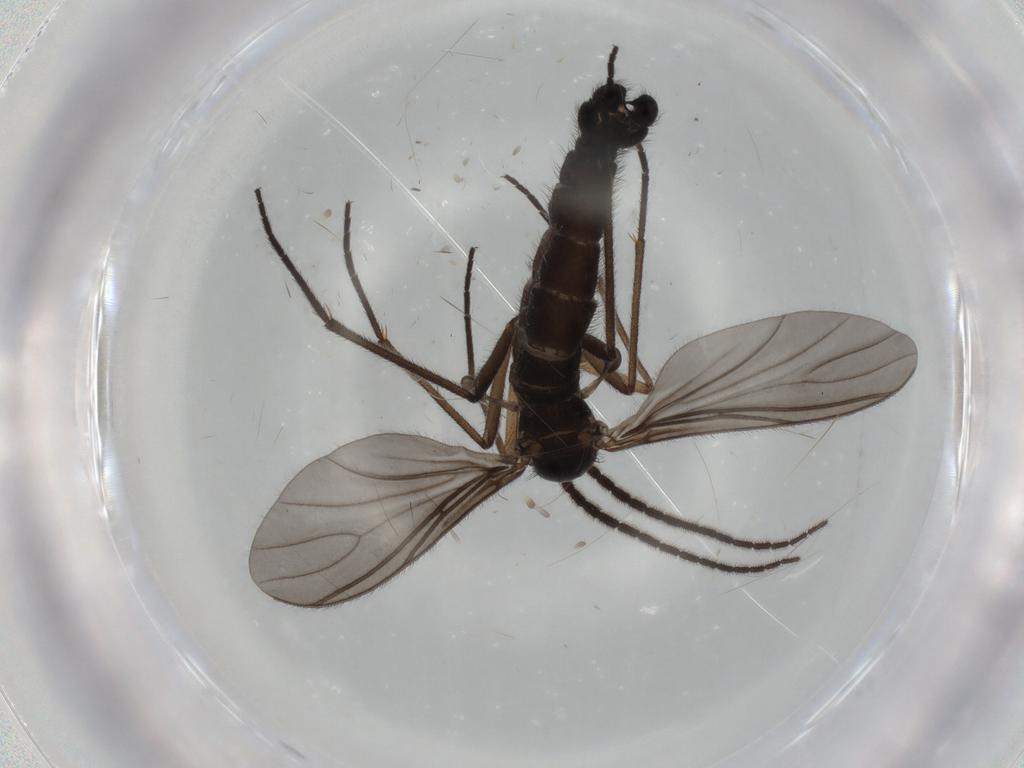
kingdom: Animalia
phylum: Arthropoda
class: Insecta
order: Diptera
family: Sciaridae
